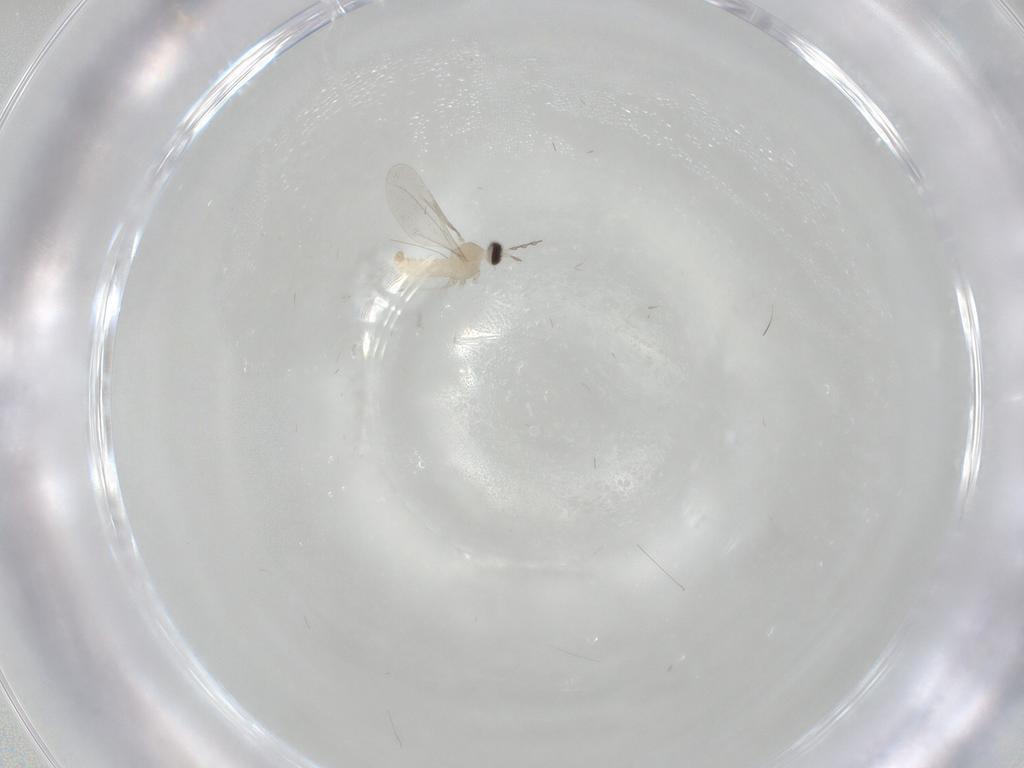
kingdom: Animalia
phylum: Arthropoda
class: Insecta
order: Diptera
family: Cecidomyiidae
